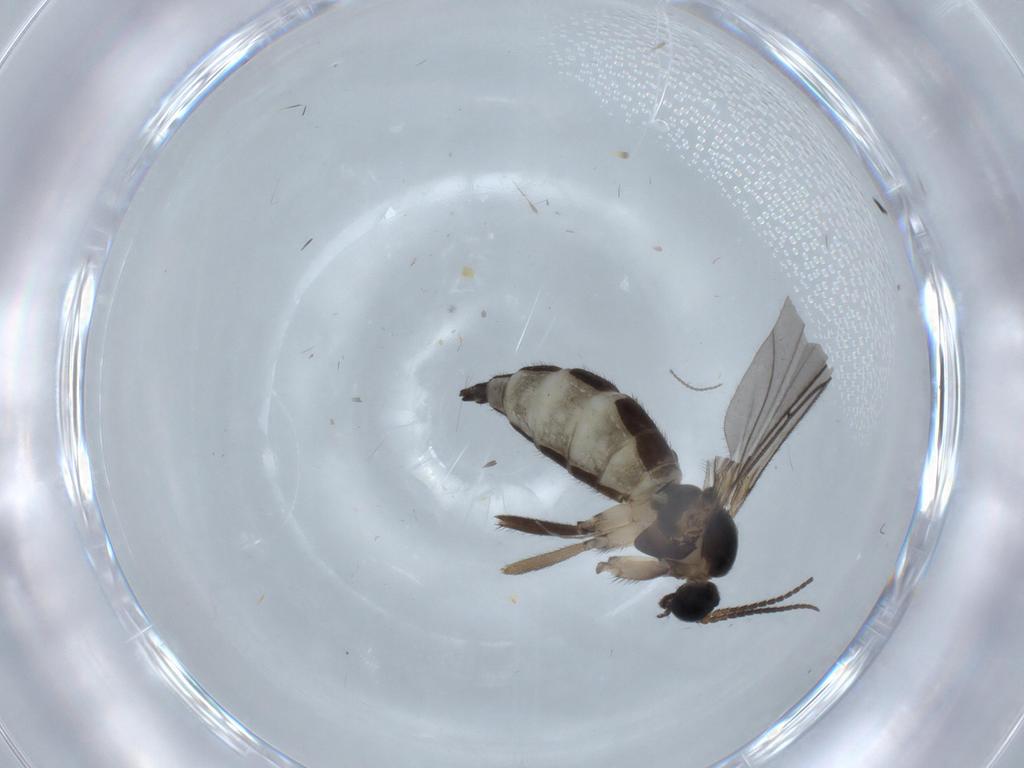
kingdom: Animalia
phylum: Arthropoda
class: Insecta
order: Diptera
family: Sciaridae
